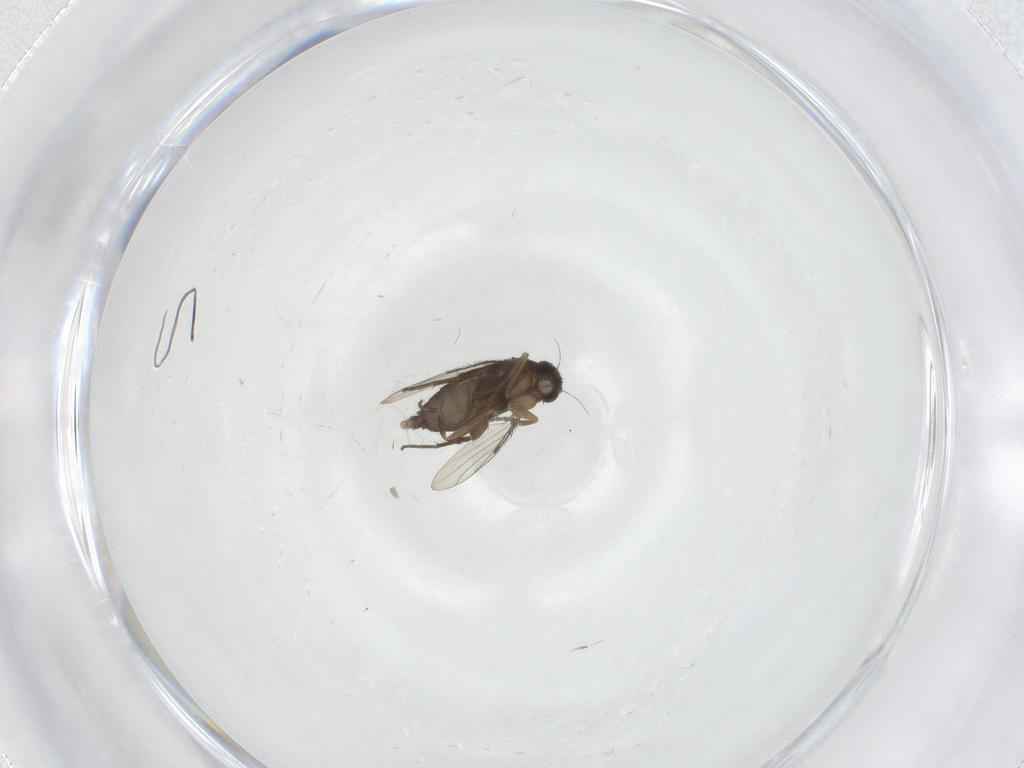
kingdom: Animalia
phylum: Arthropoda
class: Insecta
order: Diptera
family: Phoridae
